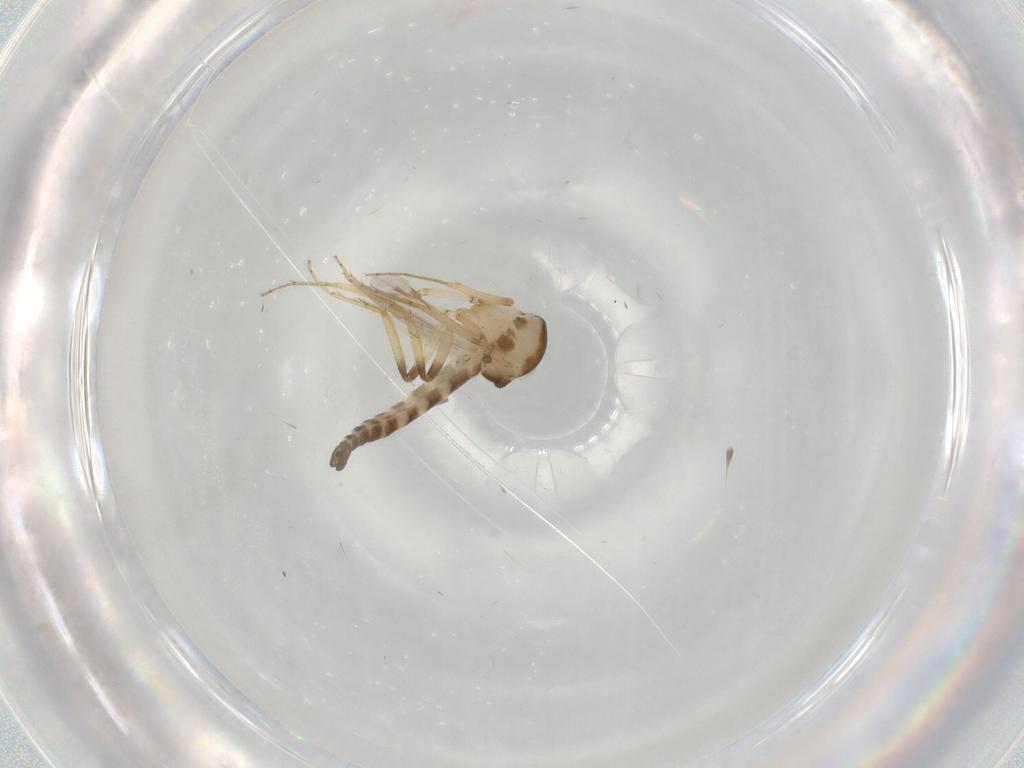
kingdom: Animalia
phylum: Arthropoda
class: Insecta
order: Diptera
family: Ceratopogonidae
